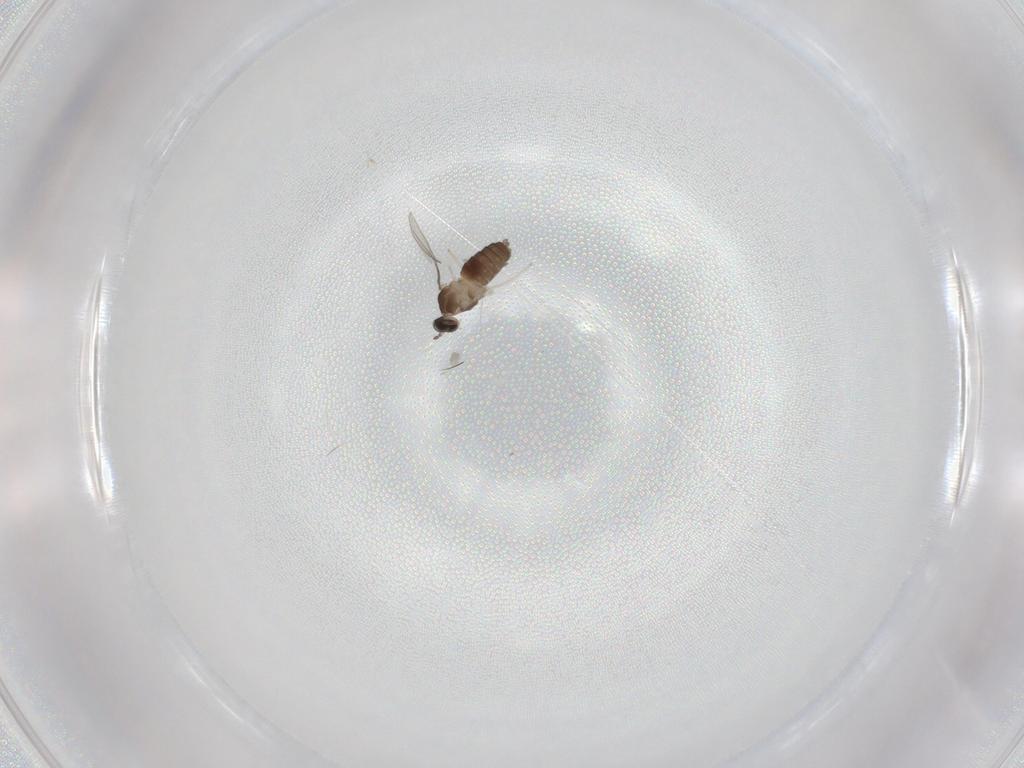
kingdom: Animalia
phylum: Arthropoda
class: Insecta
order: Diptera
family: Cecidomyiidae
